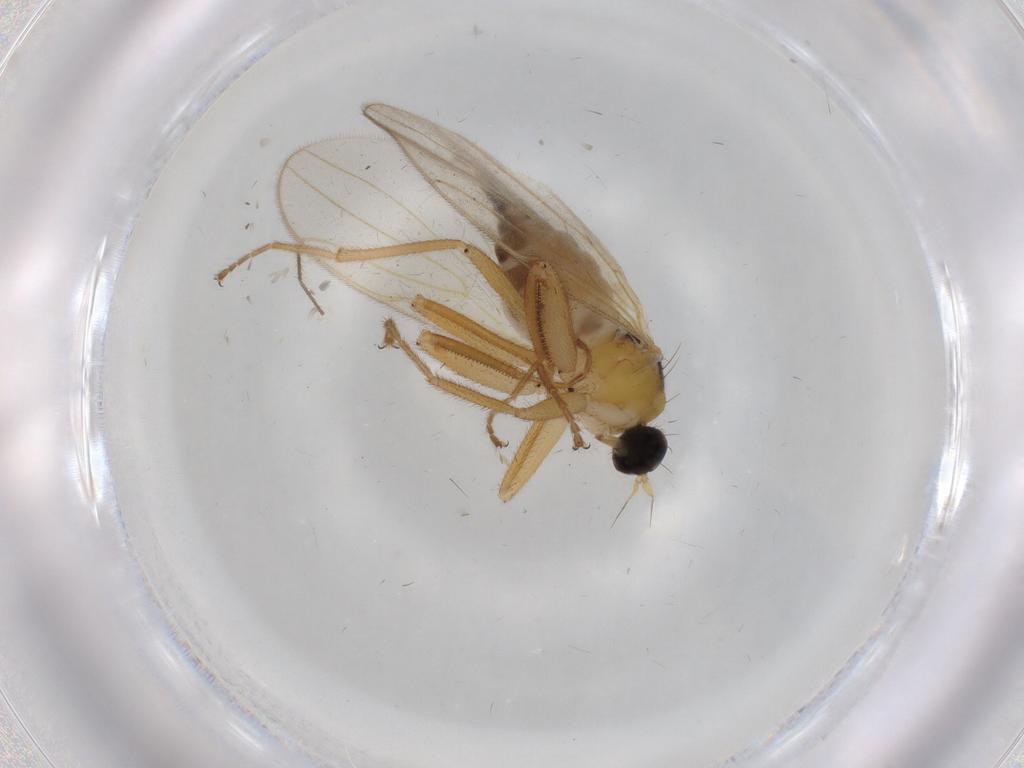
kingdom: Animalia
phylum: Arthropoda
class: Insecta
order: Diptera
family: Hybotidae
